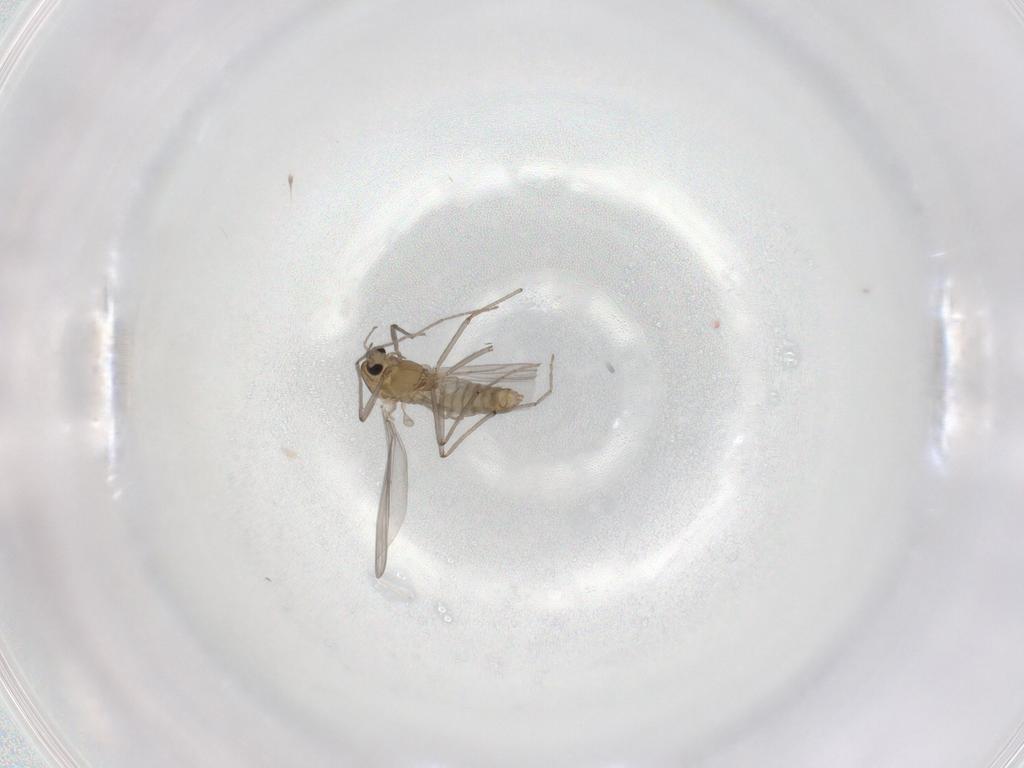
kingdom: Animalia
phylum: Arthropoda
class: Insecta
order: Diptera
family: Chironomidae
